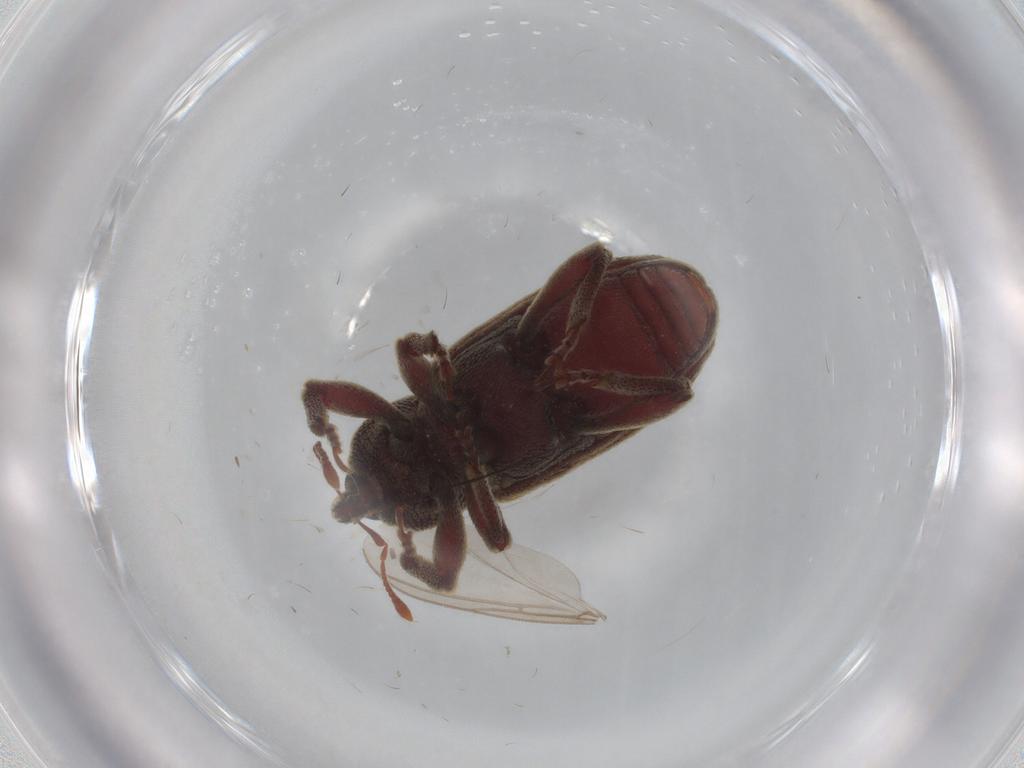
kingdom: Animalia
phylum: Arthropoda
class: Insecta
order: Coleoptera
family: Curculionidae
